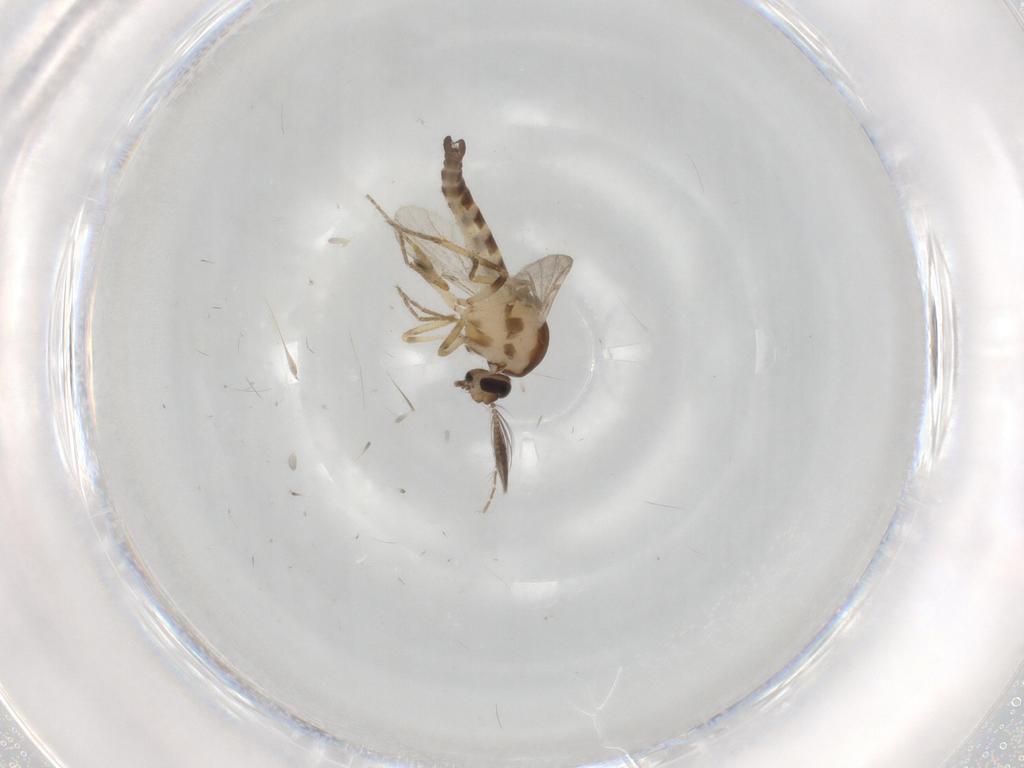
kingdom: Animalia
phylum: Arthropoda
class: Insecta
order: Diptera
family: Ceratopogonidae
